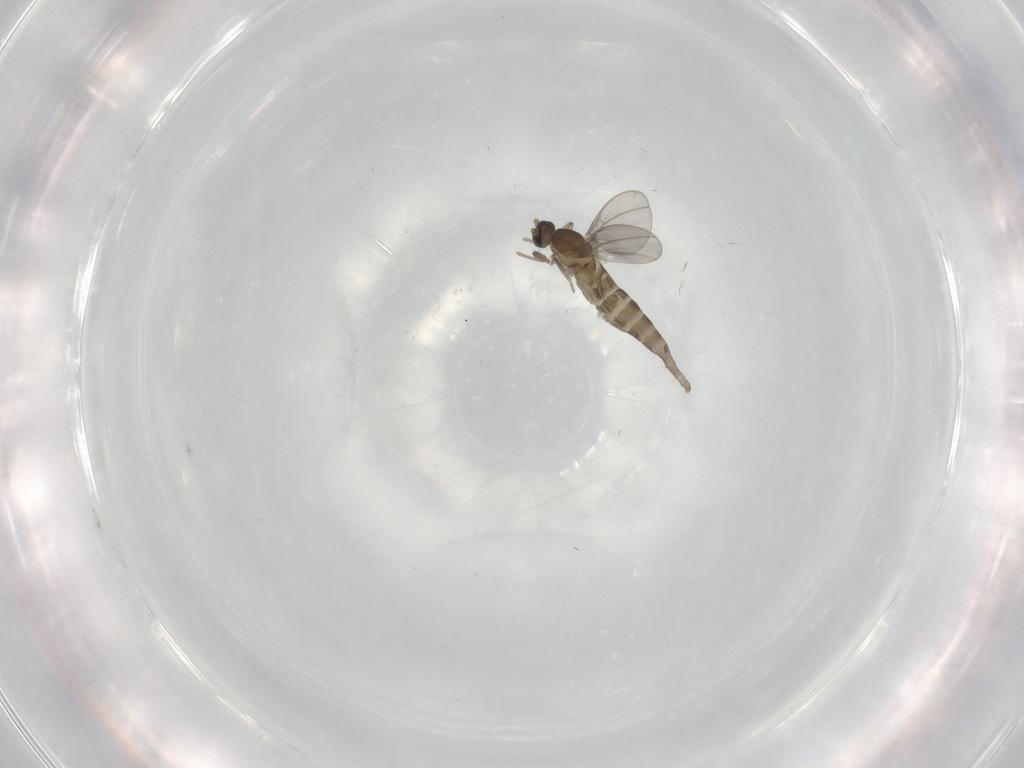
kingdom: Animalia
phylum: Arthropoda
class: Insecta
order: Diptera
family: Cecidomyiidae
